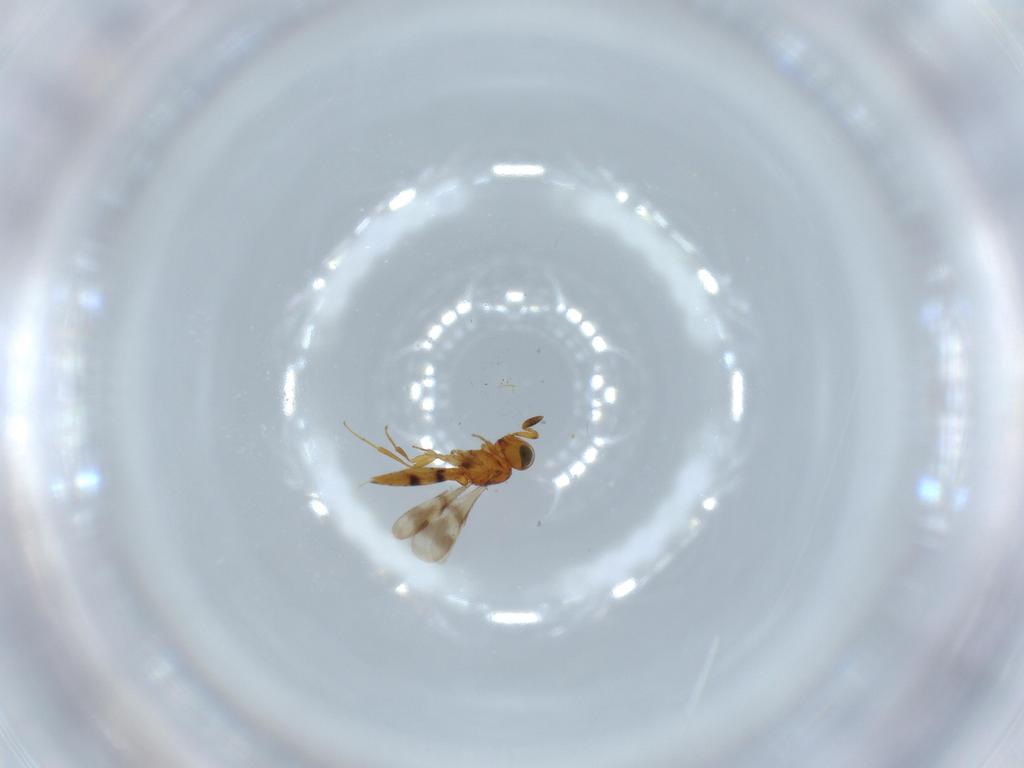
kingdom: Animalia
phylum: Arthropoda
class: Insecta
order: Hymenoptera
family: Scelionidae
